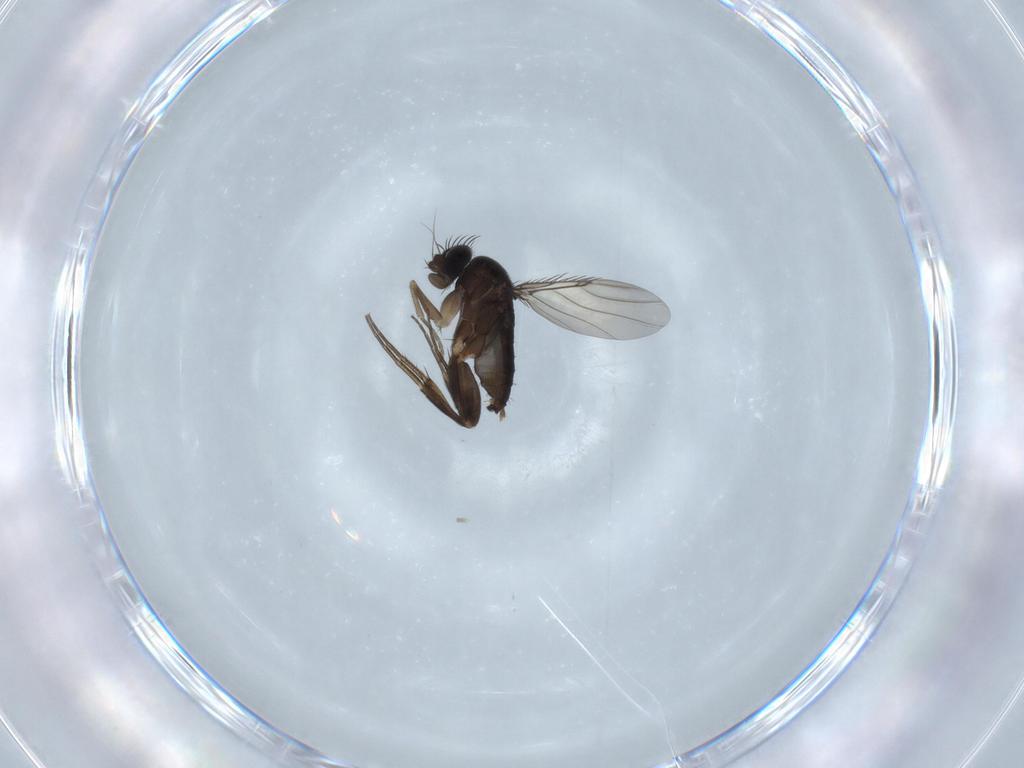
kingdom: Animalia
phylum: Arthropoda
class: Insecta
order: Diptera
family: Phoridae
